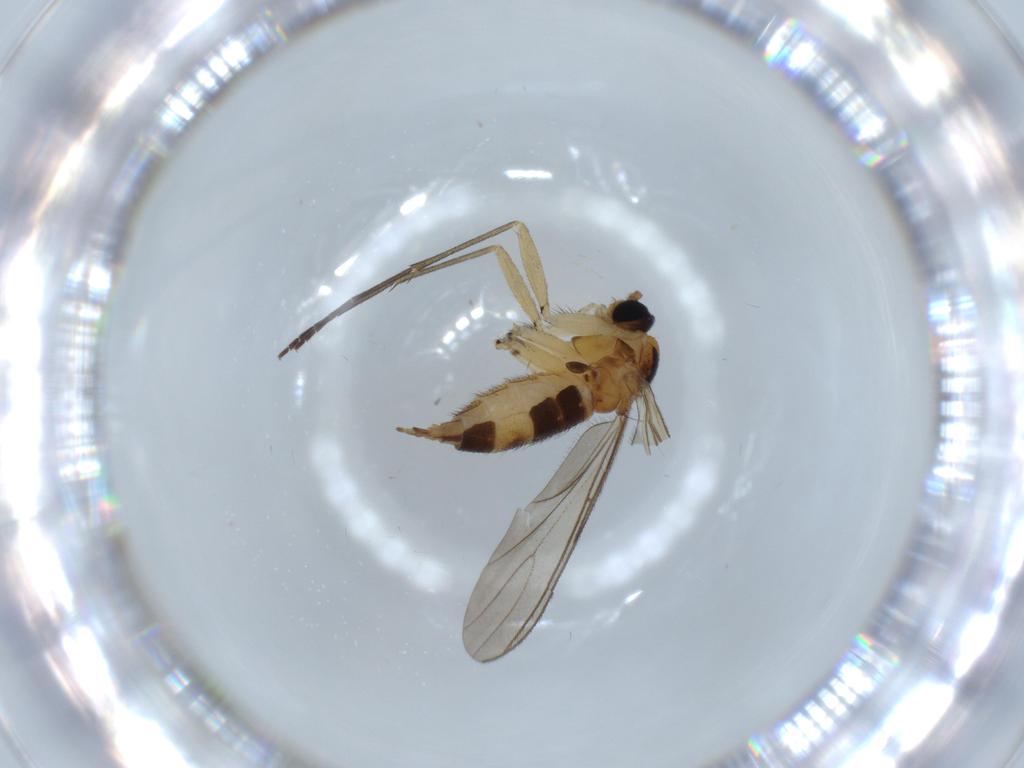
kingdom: Animalia
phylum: Arthropoda
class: Insecta
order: Diptera
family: Sciaridae
